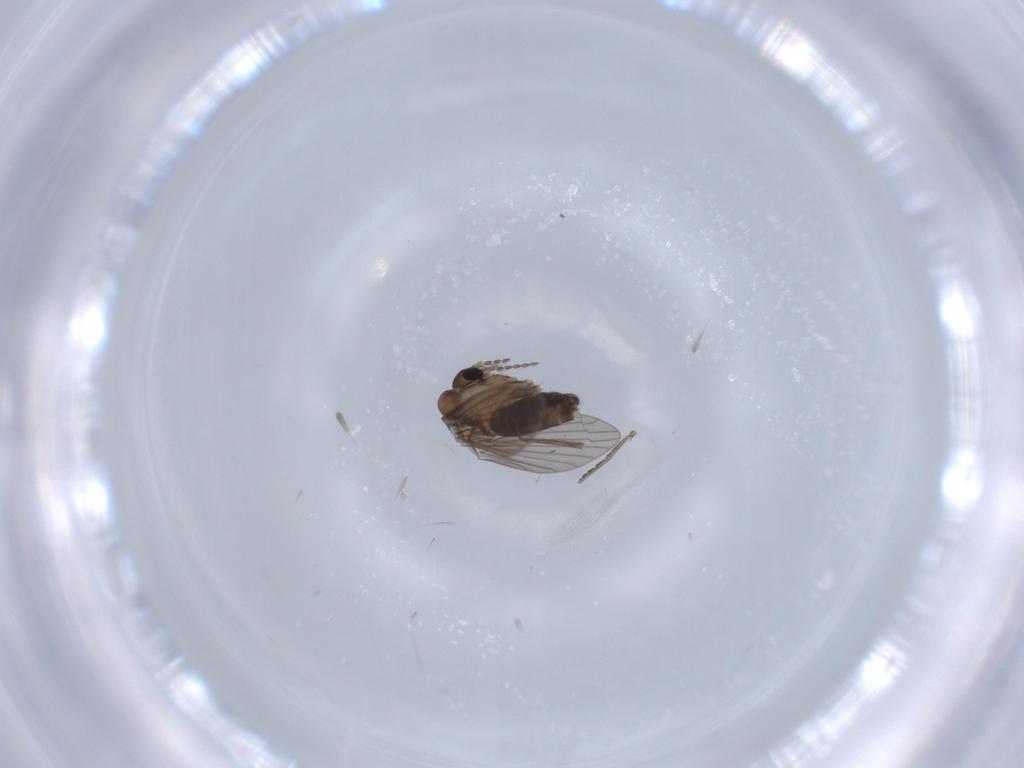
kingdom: Animalia
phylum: Arthropoda
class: Insecta
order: Diptera
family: Psychodidae
